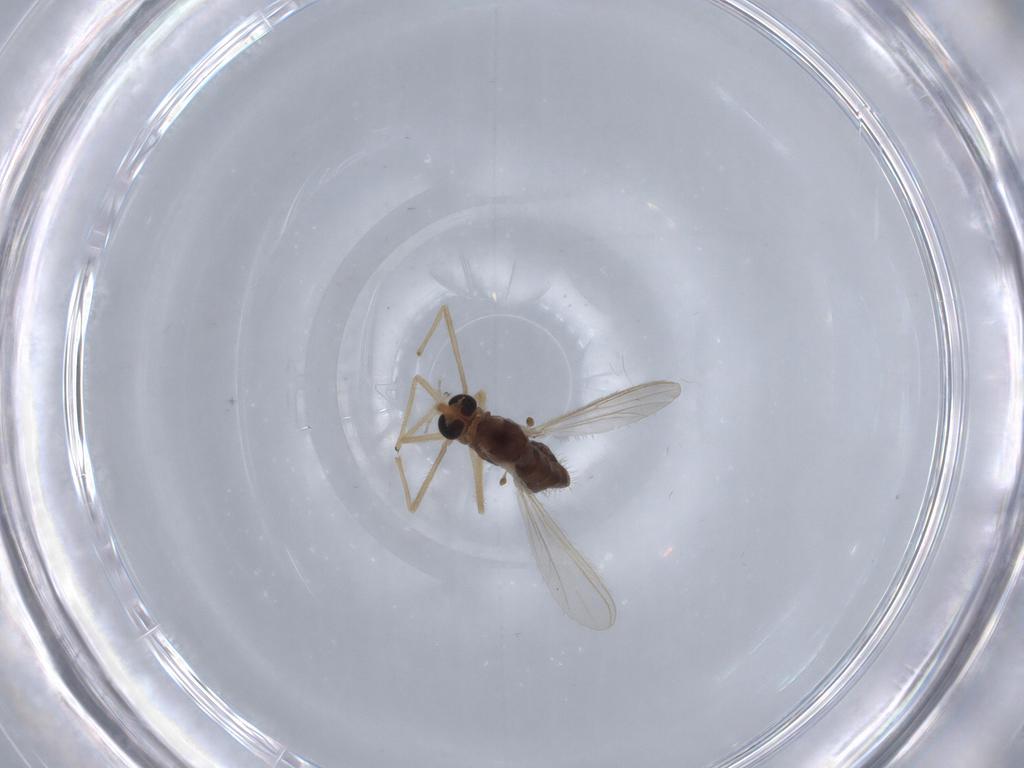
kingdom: Animalia
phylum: Arthropoda
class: Insecta
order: Diptera
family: Chironomidae
